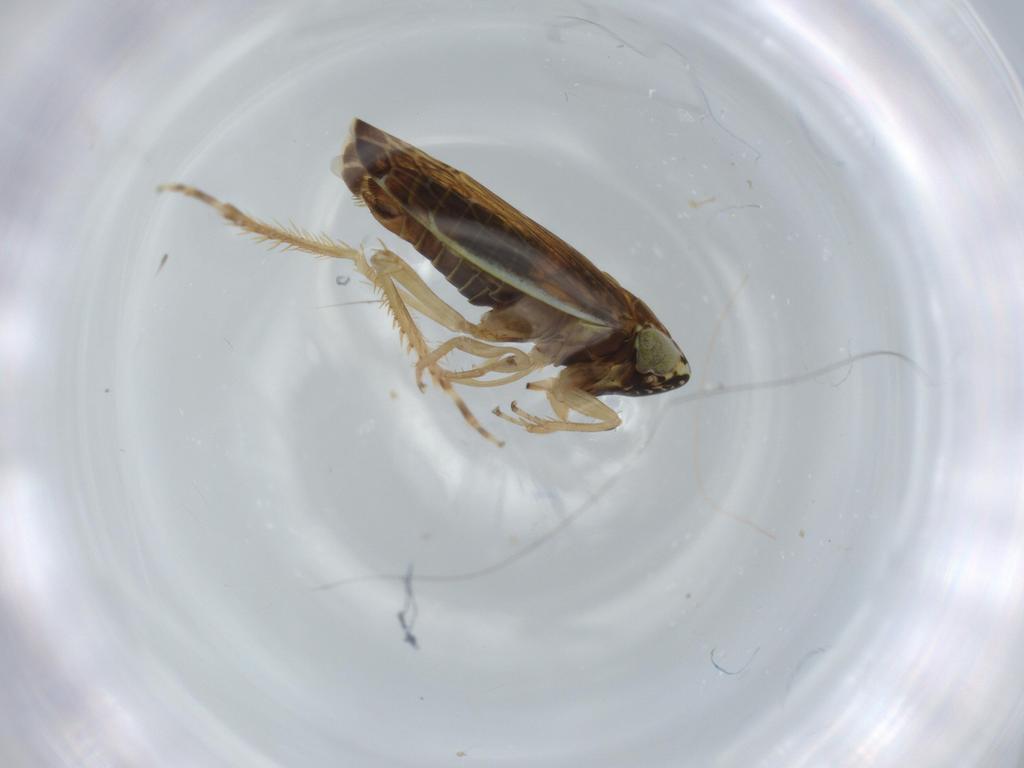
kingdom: Animalia
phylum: Arthropoda
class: Insecta
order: Hemiptera
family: Cicadellidae
